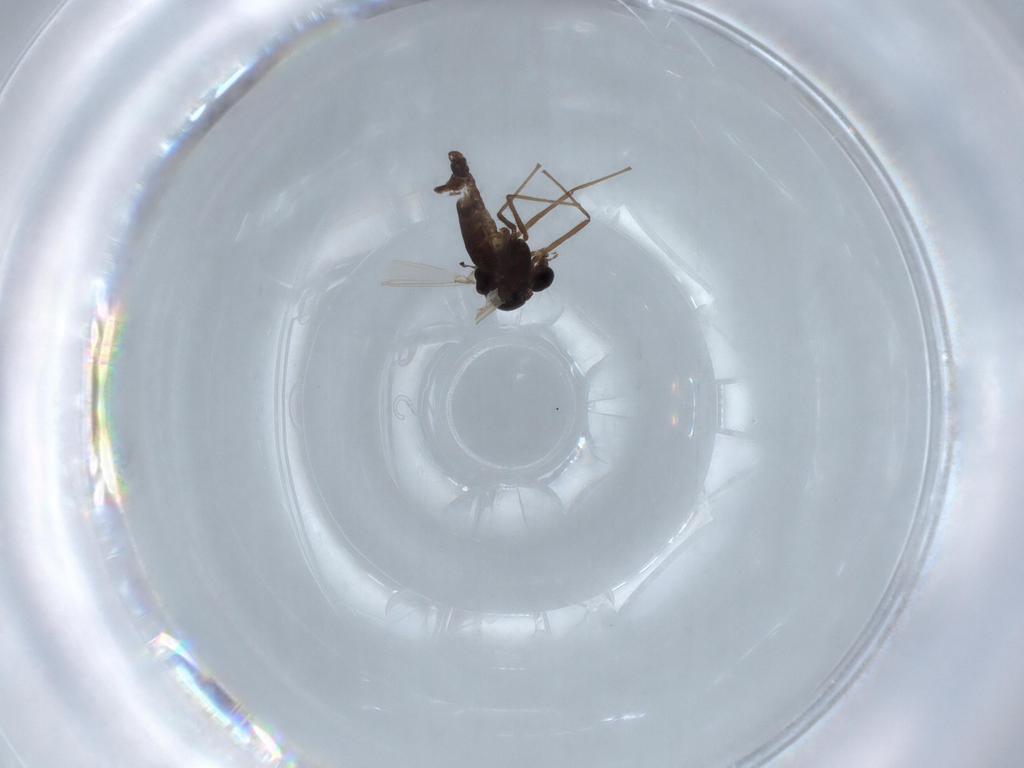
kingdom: Animalia
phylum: Arthropoda
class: Insecta
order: Diptera
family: Chironomidae
